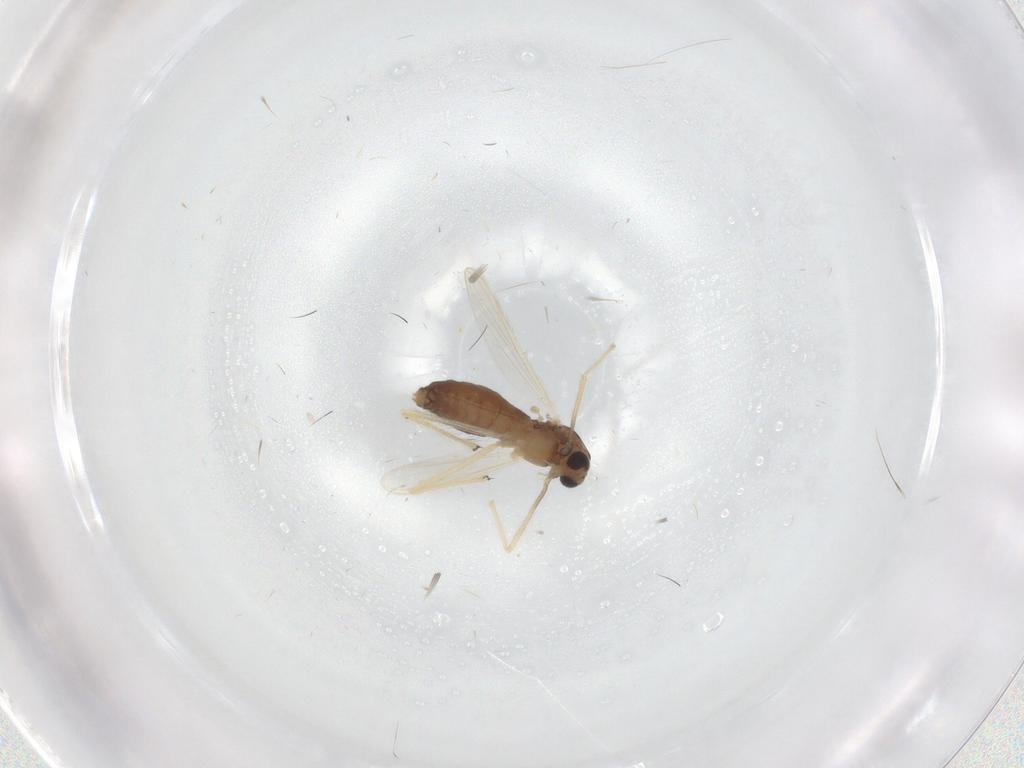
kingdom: Animalia
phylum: Arthropoda
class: Insecta
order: Diptera
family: Chironomidae
